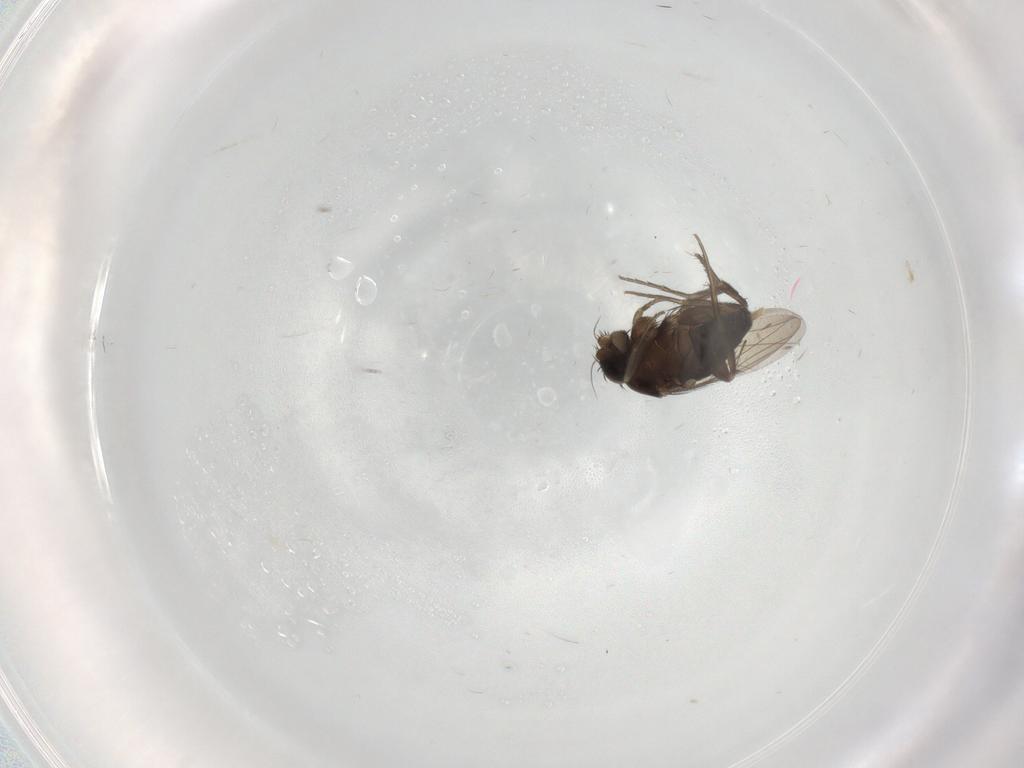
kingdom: Animalia
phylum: Arthropoda
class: Insecta
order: Diptera
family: Phoridae
